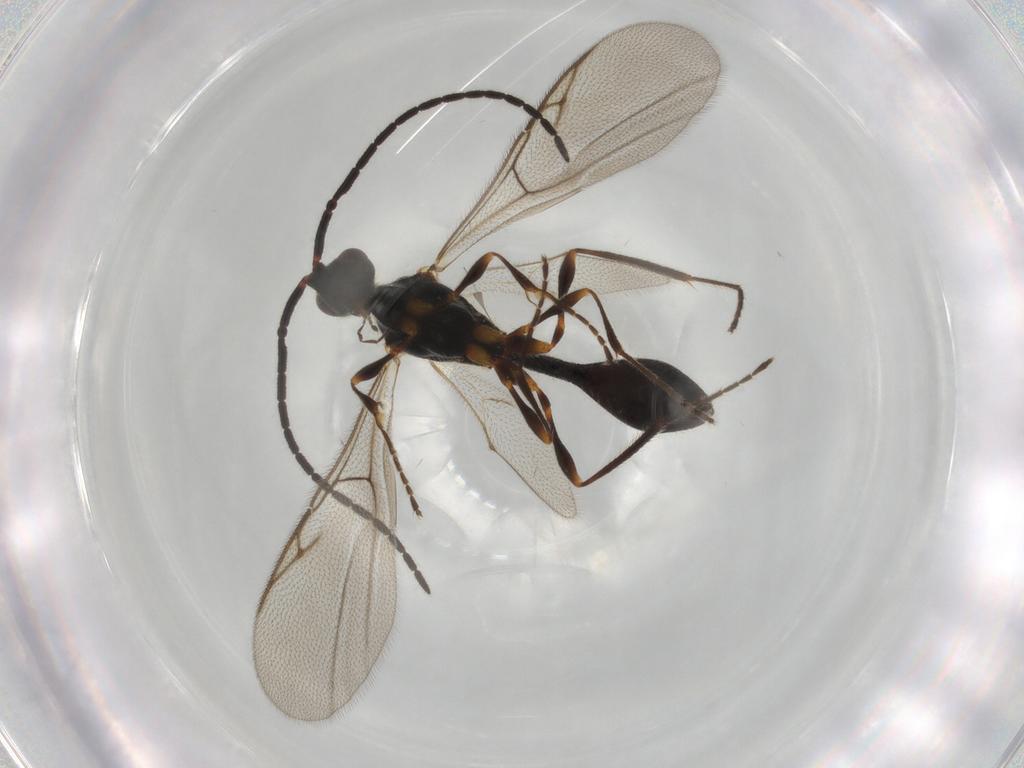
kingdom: Animalia
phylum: Arthropoda
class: Insecta
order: Hymenoptera
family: Diapriidae
